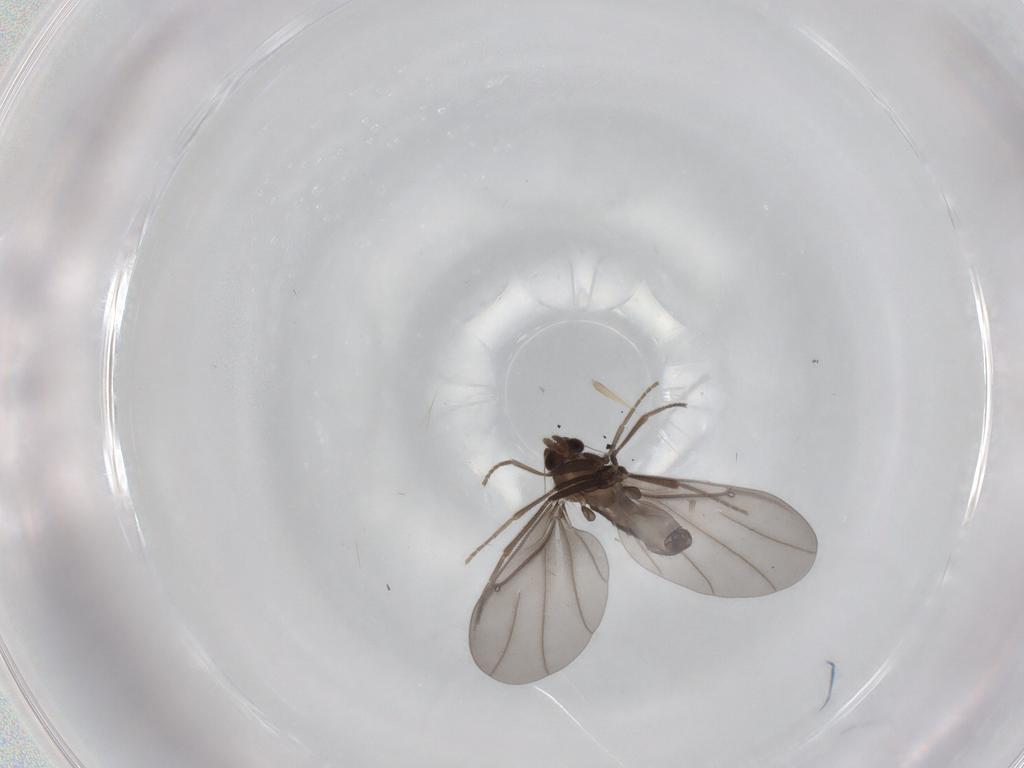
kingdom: Animalia
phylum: Arthropoda
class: Insecta
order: Diptera
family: Phoridae
